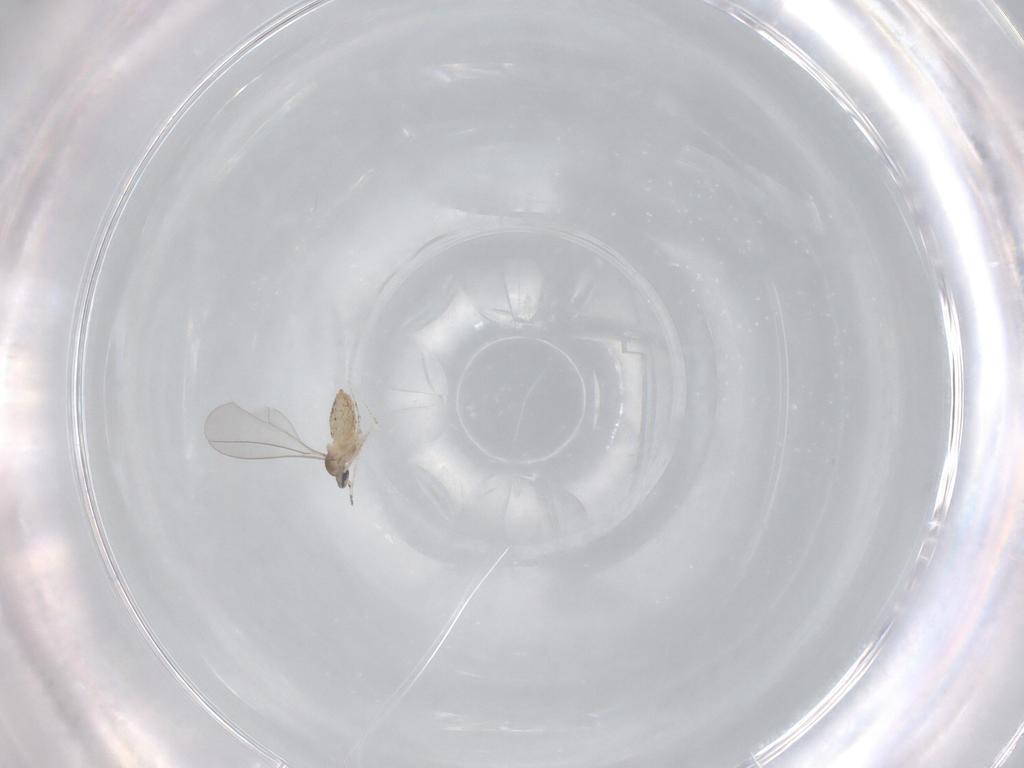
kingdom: Animalia
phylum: Arthropoda
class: Insecta
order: Diptera
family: Cecidomyiidae
